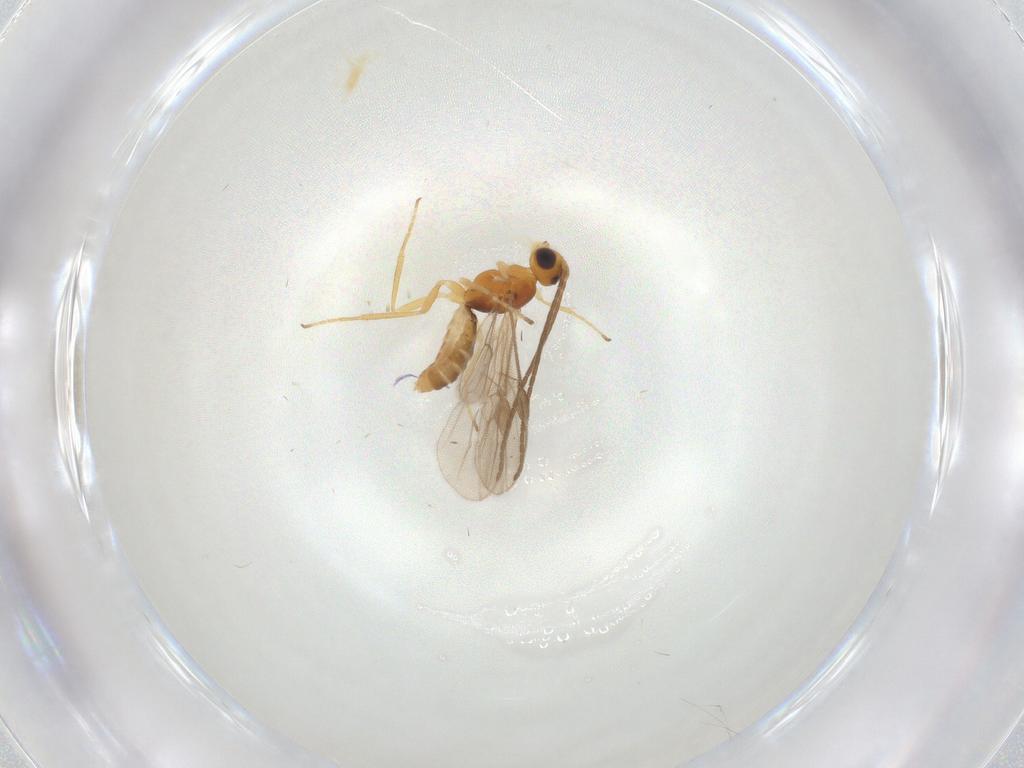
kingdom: Animalia
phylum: Arthropoda
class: Insecta
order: Hymenoptera
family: Braconidae
